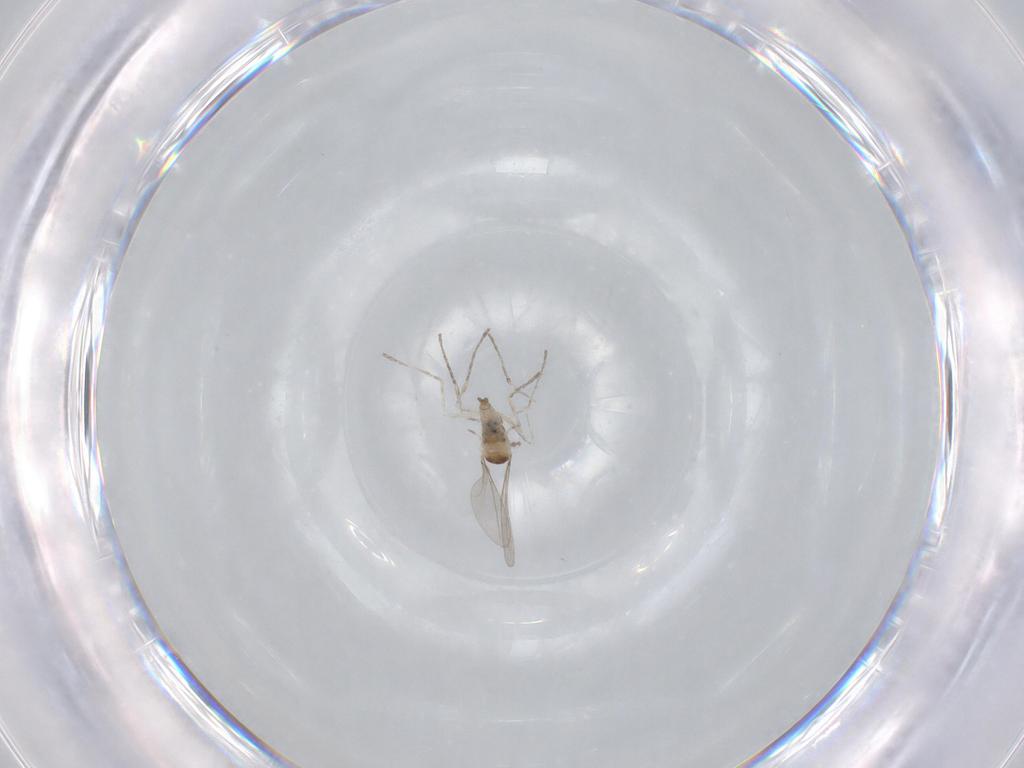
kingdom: Animalia
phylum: Arthropoda
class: Insecta
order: Diptera
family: Cecidomyiidae
